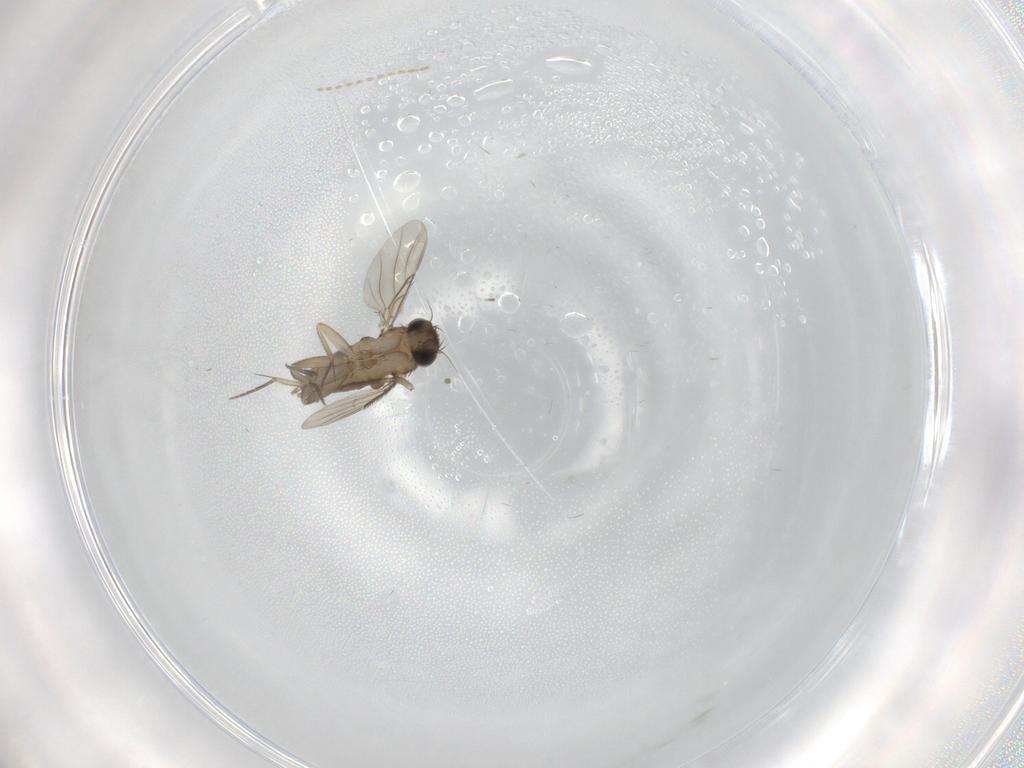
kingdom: Animalia
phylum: Arthropoda
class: Insecta
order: Diptera
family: Phoridae
